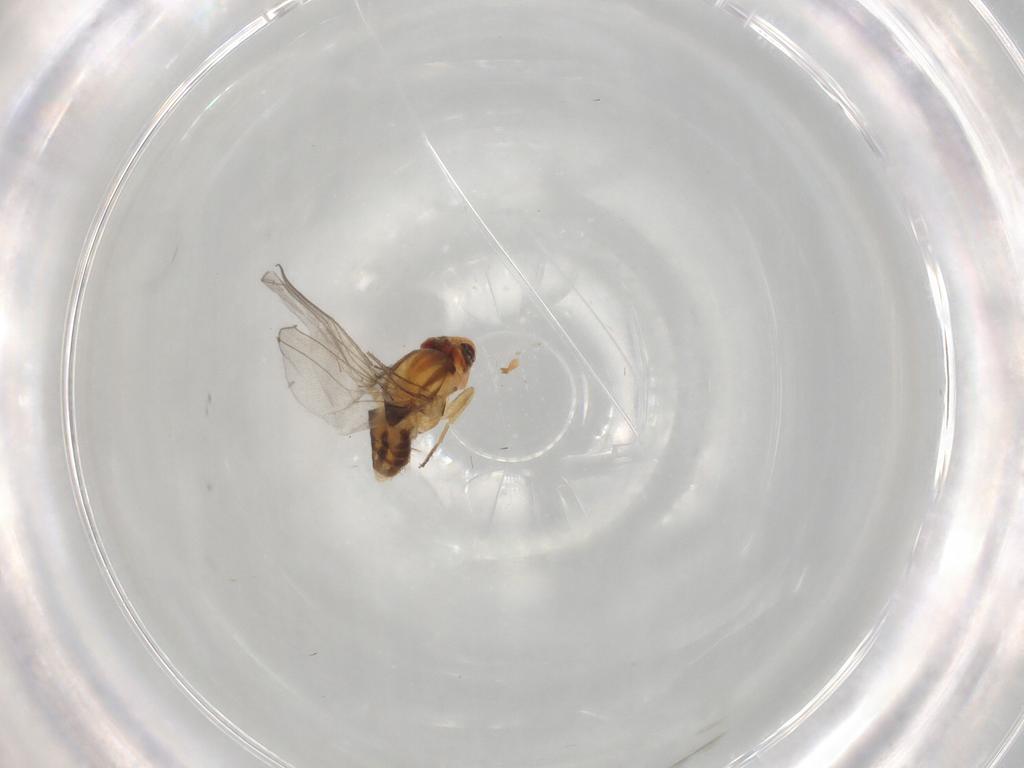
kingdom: Animalia
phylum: Arthropoda
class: Insecta
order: Diptera
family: Chloropidae
